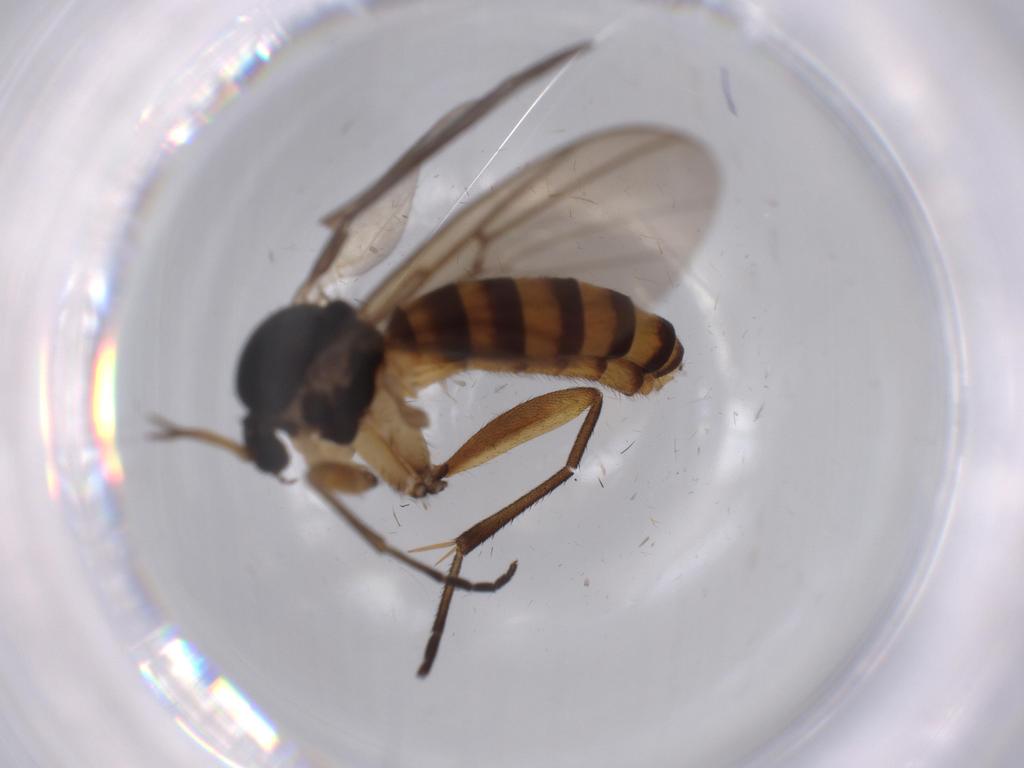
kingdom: Animalia
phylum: Arthropoda
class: Insecta
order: Diptera
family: Mycetophilidae
